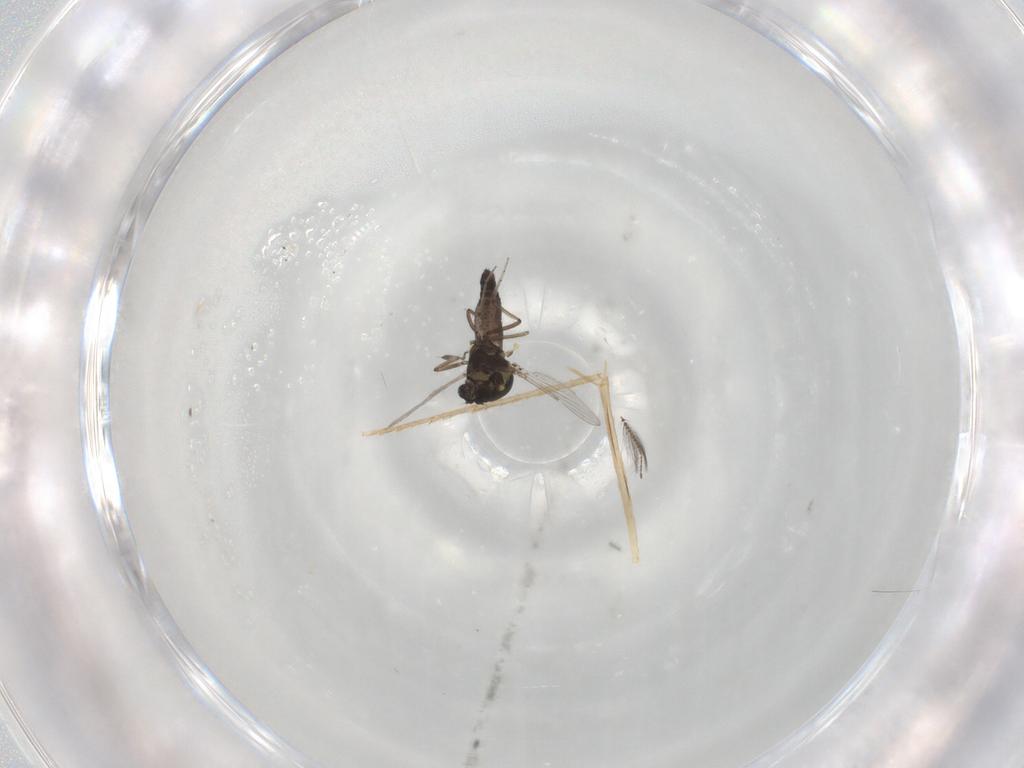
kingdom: Animalia
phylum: Arthropoda
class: Insecta
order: Diptera
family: Ceratopogonidae
